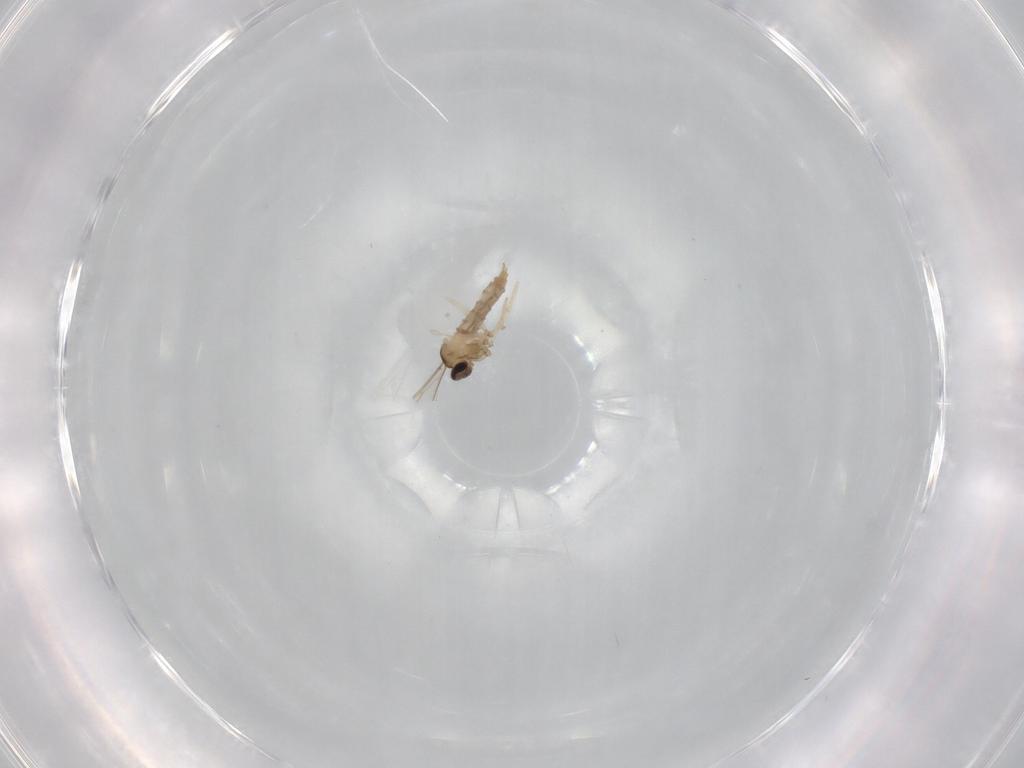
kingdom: Animalia
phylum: Arthropoda
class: Insecta
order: Diptera
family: Cecidomyiidae
